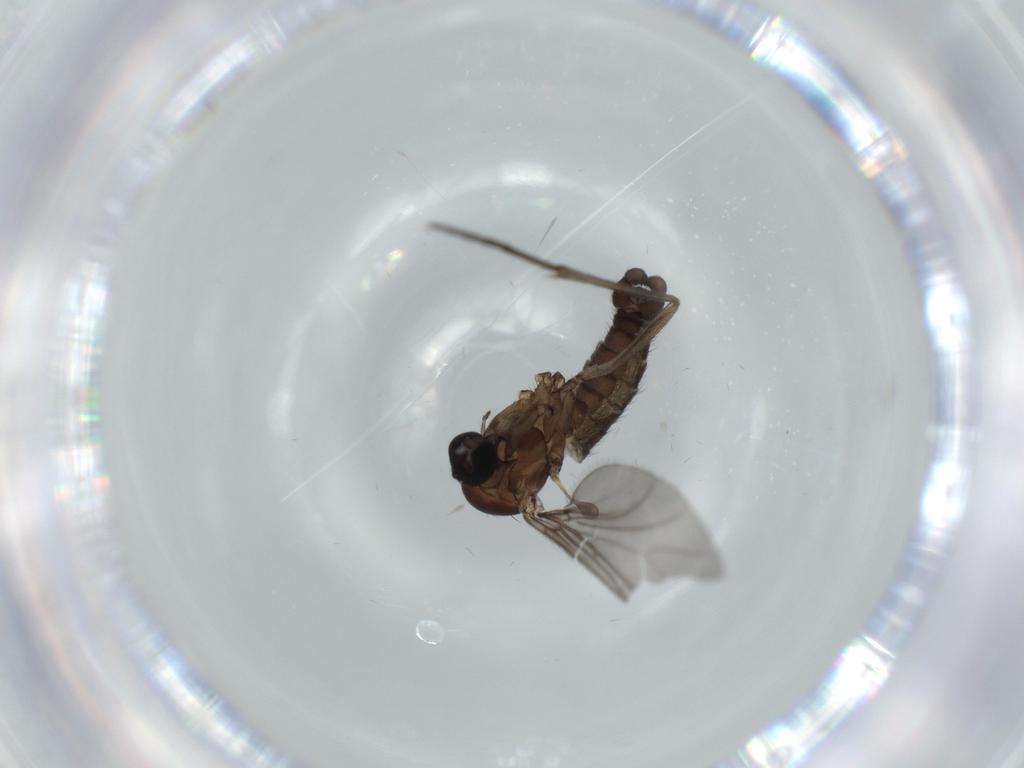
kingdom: Animalia
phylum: Arthropoda
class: Insecta
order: Diptera
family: Sciaridae
